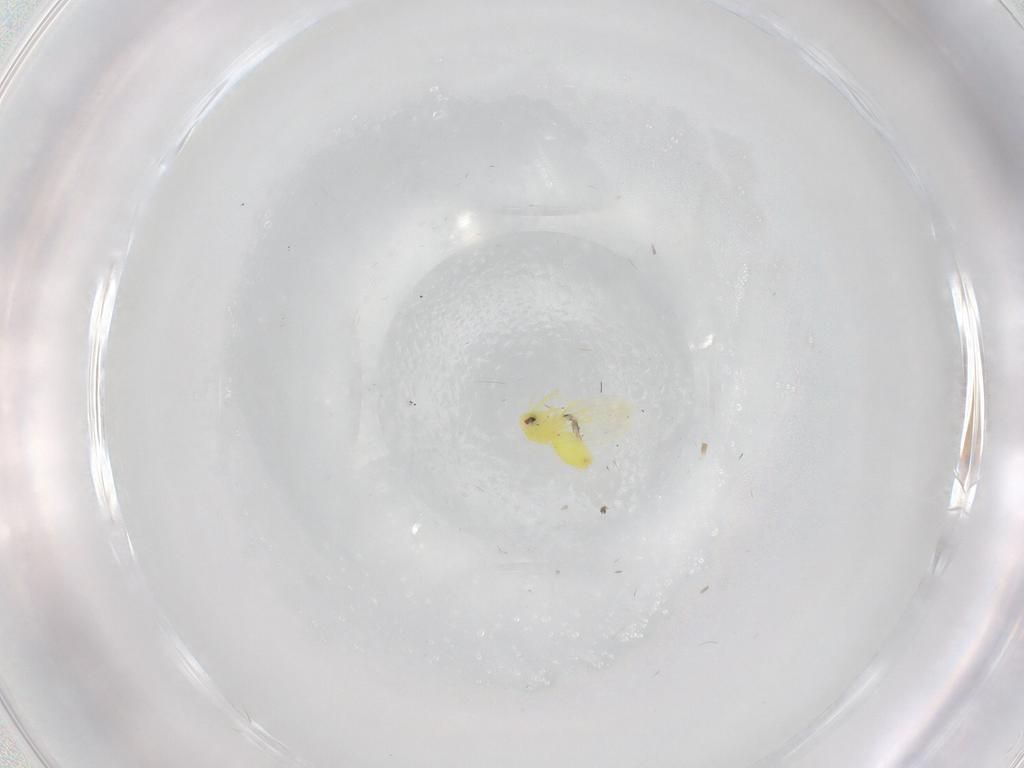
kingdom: Animalia
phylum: Arthropoda
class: Insecta
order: Hemiptera
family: Aleyrodidae
